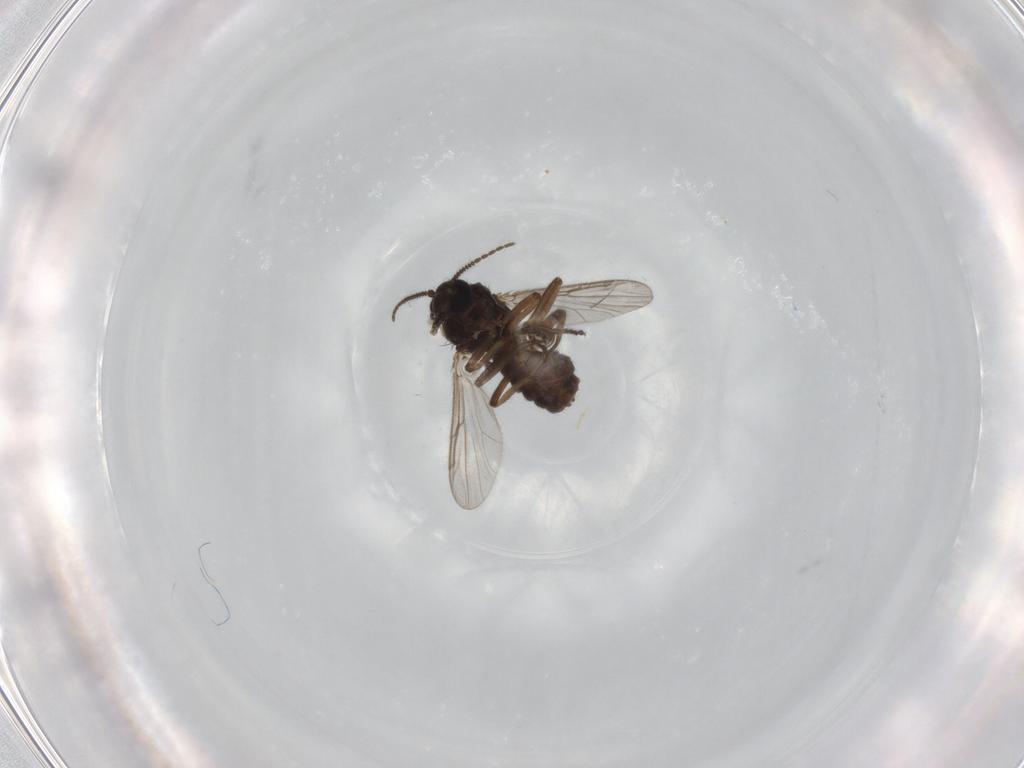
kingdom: Animalia
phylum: Arthropoda
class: Insecta
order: Diptera
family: Ceratopogonidae
